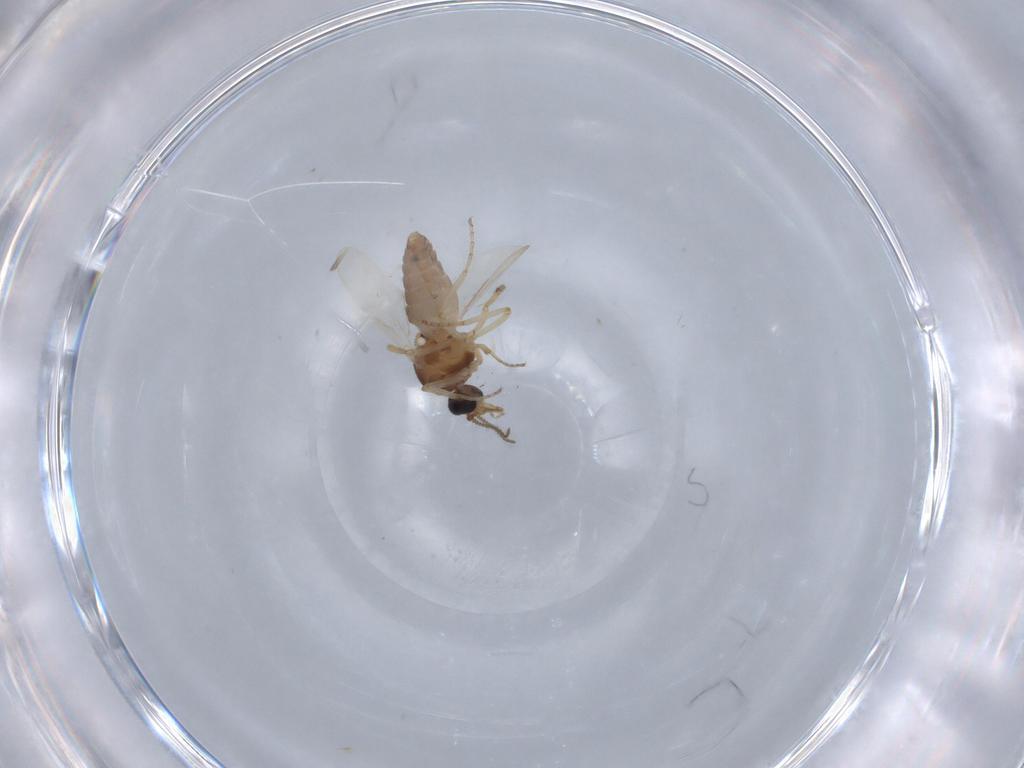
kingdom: Animalia
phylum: Arthropoda
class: Insecta
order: Diptera
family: Ceratopogonidae
